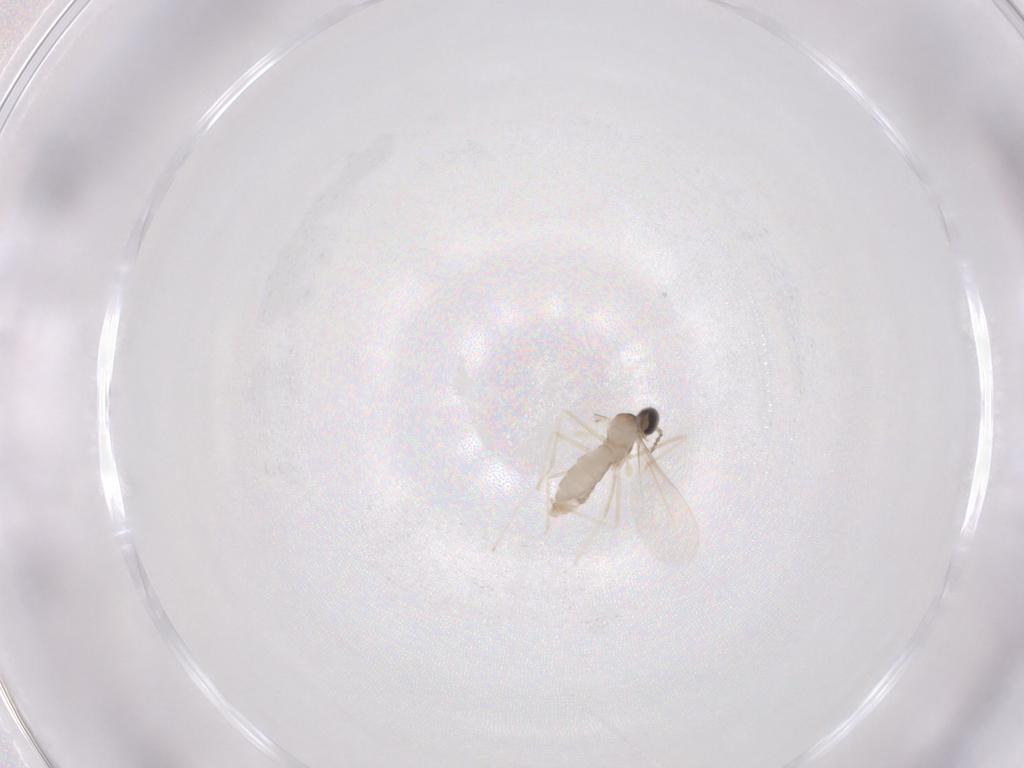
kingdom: Animalia
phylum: Arthropoda
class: Insecta
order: Diptera
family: Cecidomyiidae
